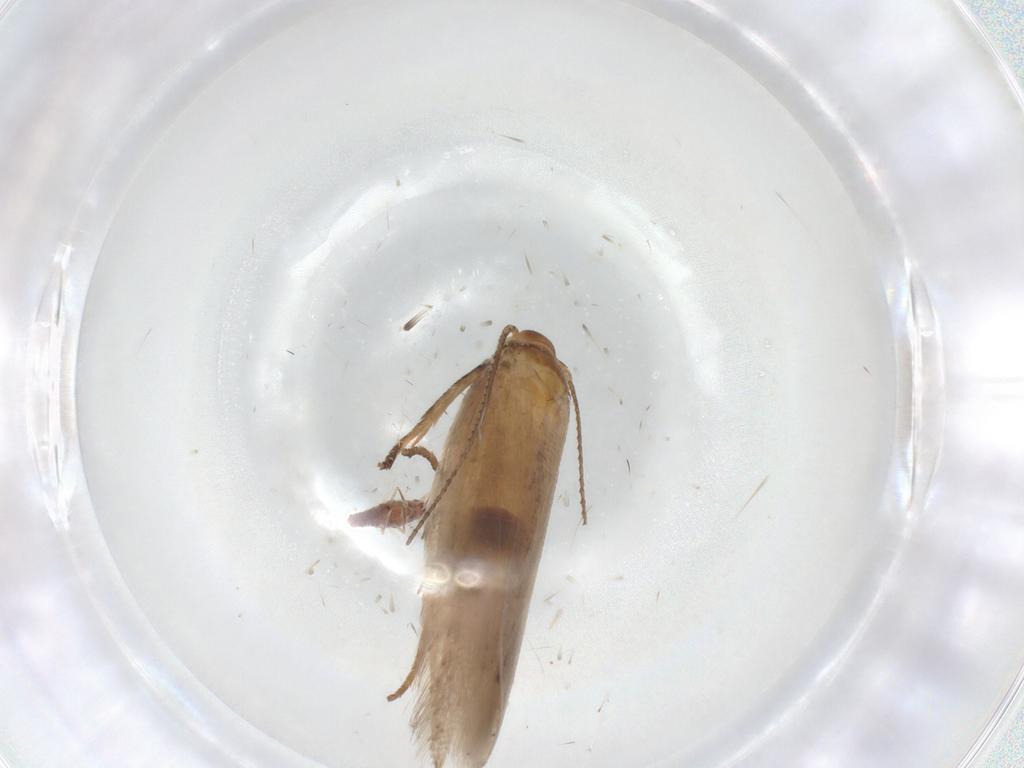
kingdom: Animalia
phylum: Arthropoda
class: Insecta
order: Lepidoptera
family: Gelechiidae
